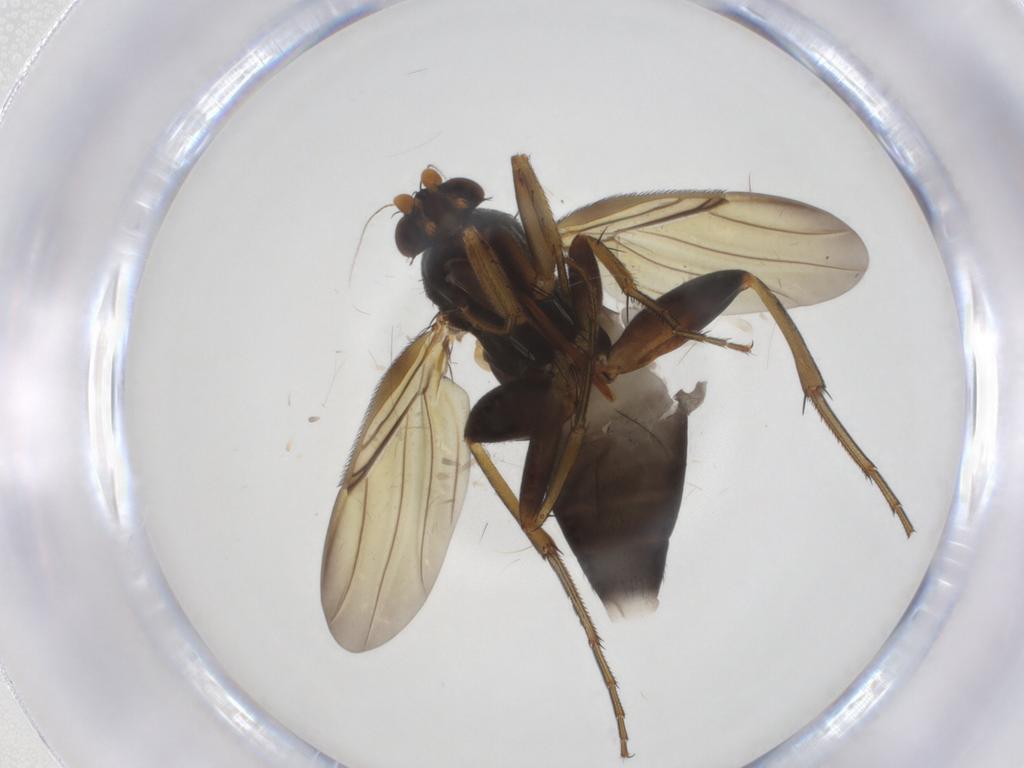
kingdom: Animalia
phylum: Arthropoda
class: Insecta
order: Diptera
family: Phoridae
